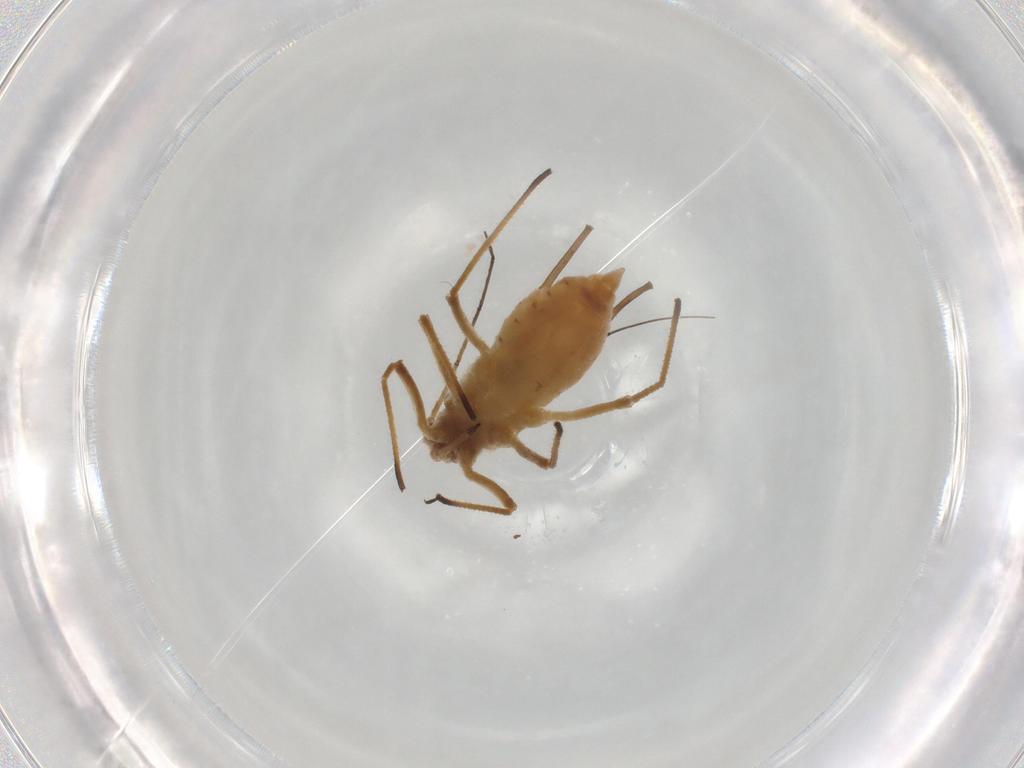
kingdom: Animalia
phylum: Arthropoda
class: Insecta
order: Hemiptera
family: Aphididae
